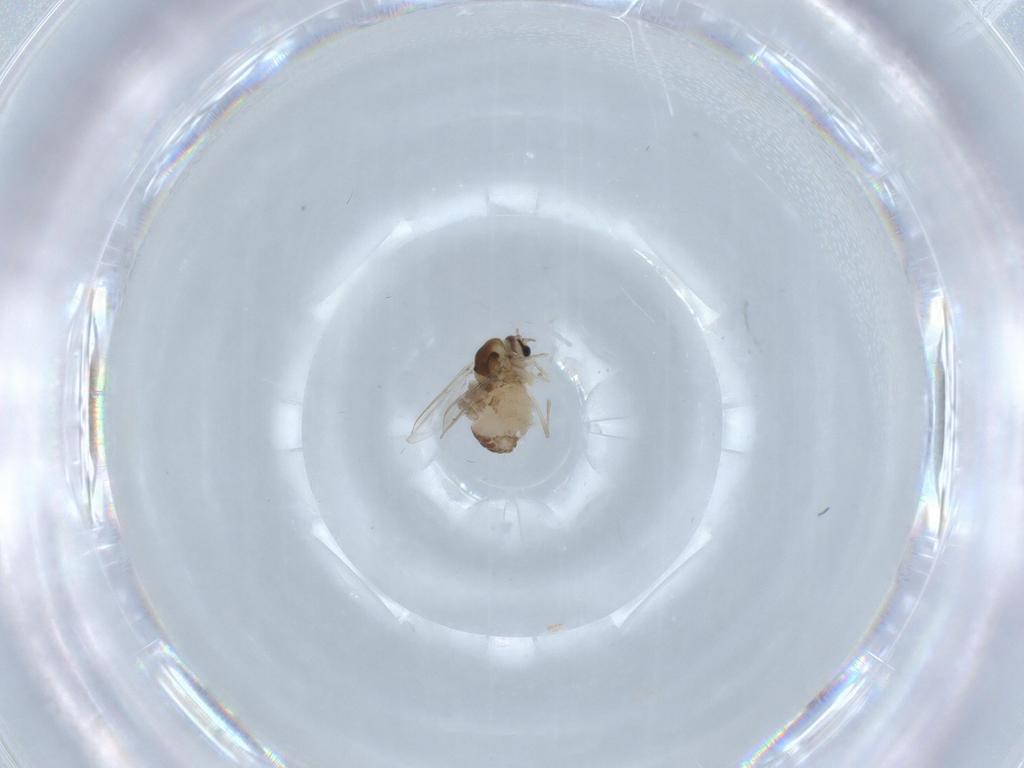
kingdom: Animalia
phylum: Arthropoda
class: Insecta
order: Diptera
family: Chironomidae
